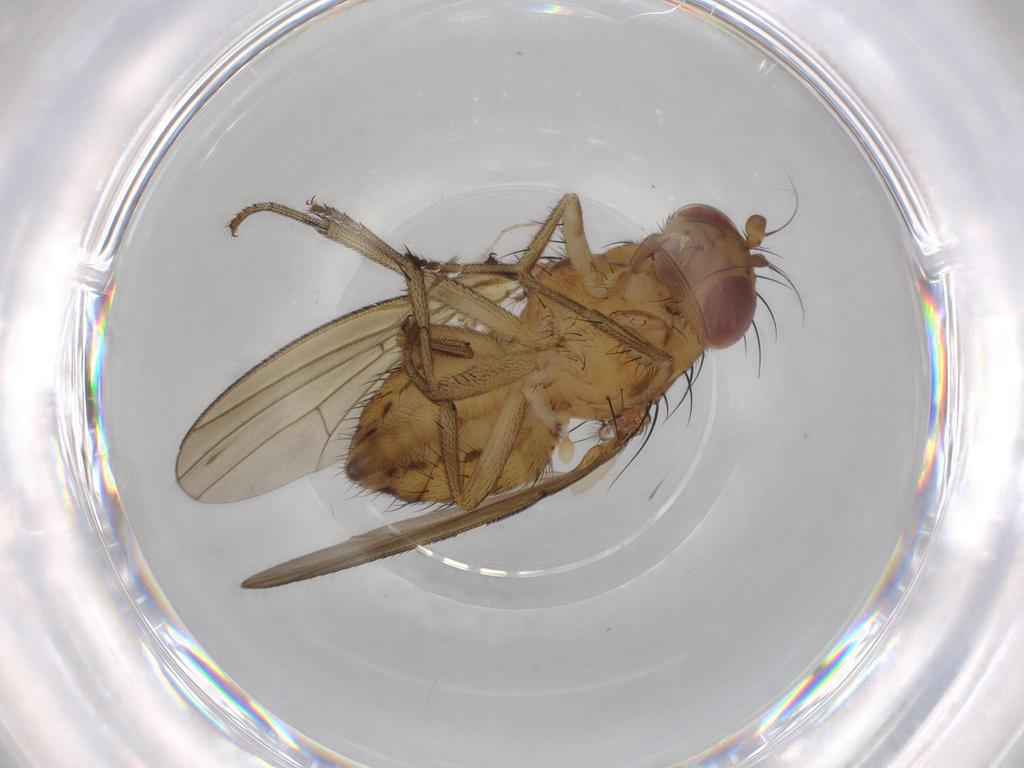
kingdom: Animalia
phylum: Arthropoda
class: Insecta
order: Diptera
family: Chironomidae
